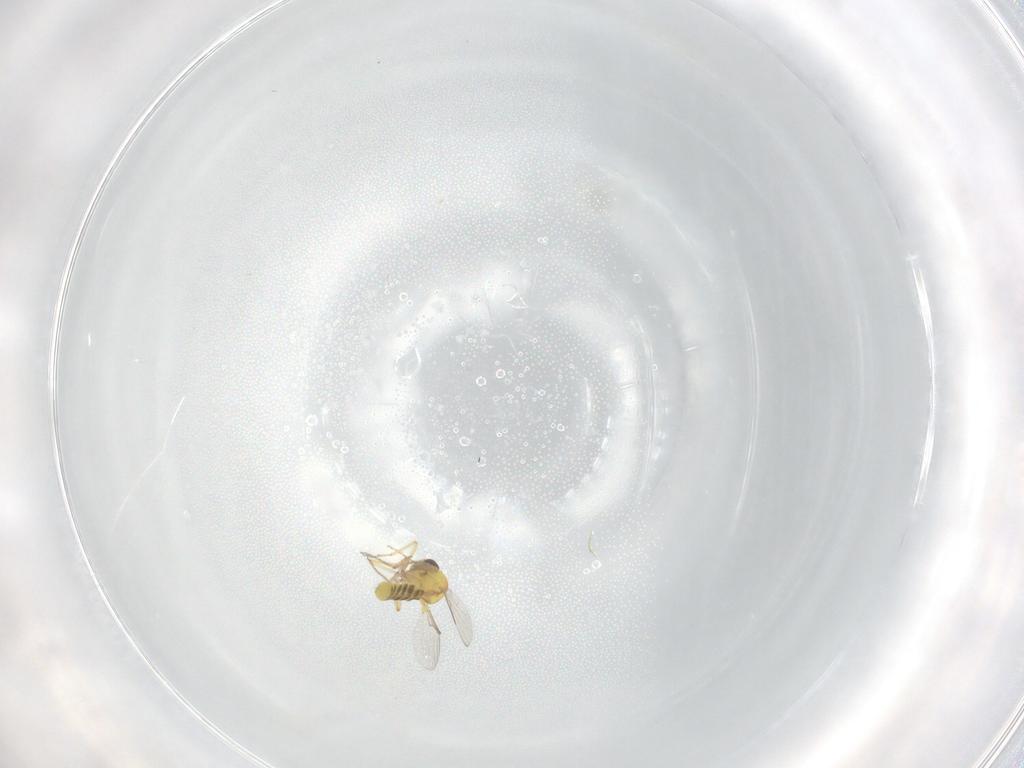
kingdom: Animalia
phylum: Arthropoda
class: Insecta
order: Diptera
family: Ceratopogonidae
